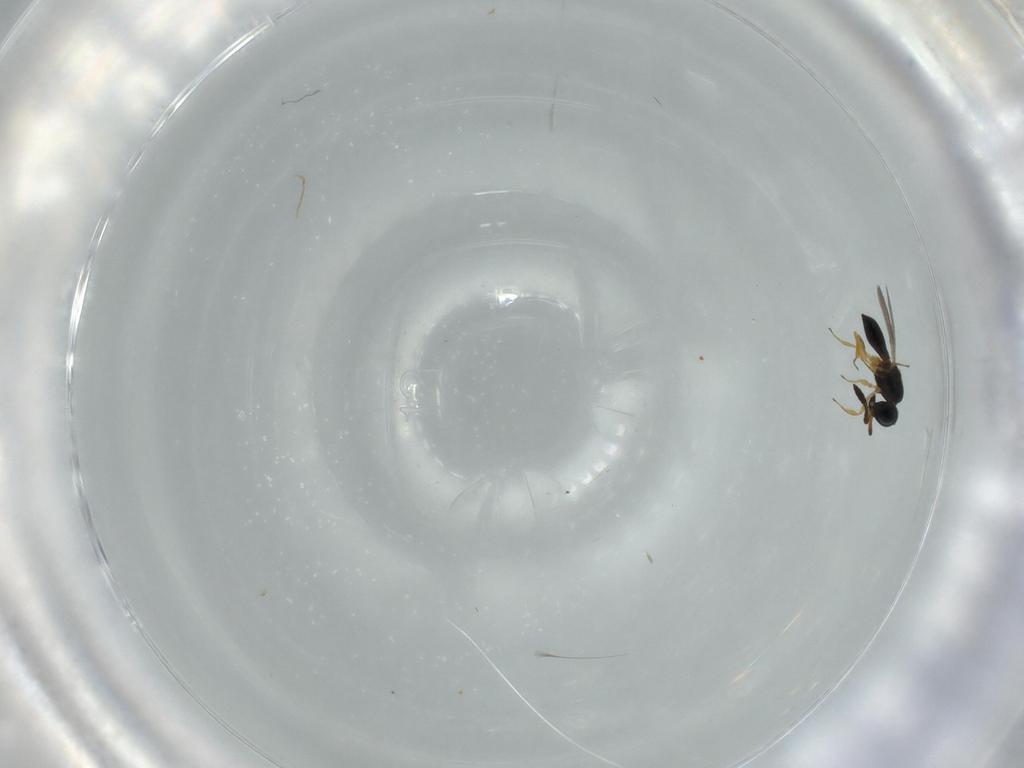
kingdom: Animalia
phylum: Arthropoda
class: Insecta
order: Hymenoptera
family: Scelionidae
